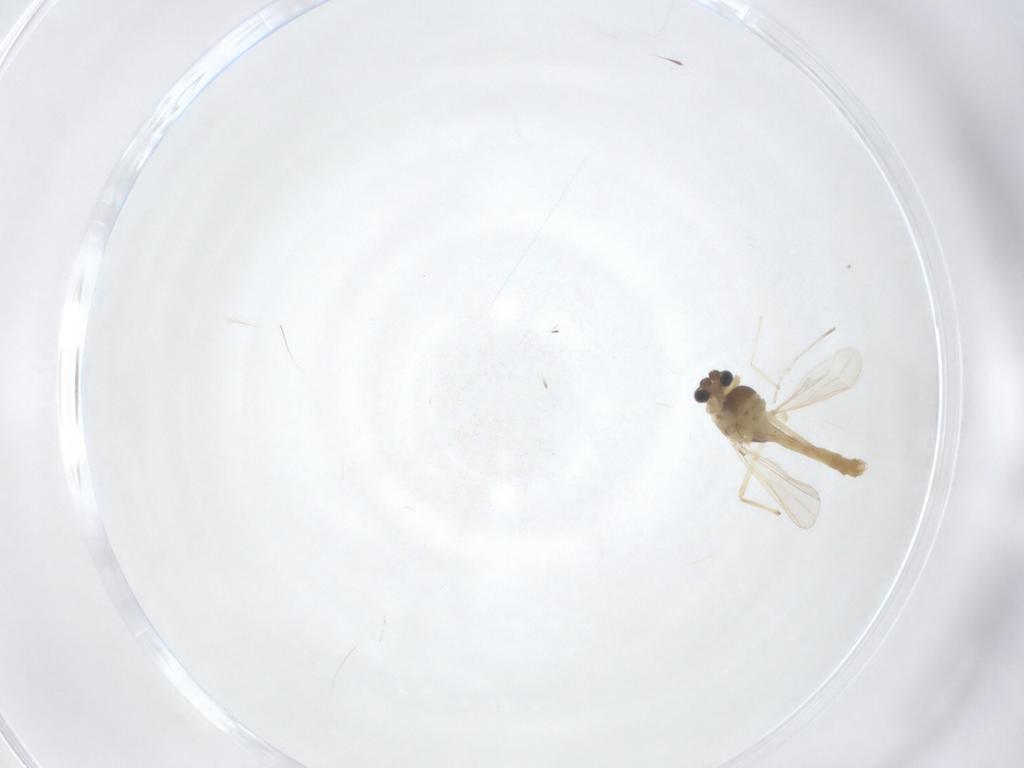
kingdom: Animalia
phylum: Arthropoda
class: Insecta
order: Diptera
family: Cecidomyiidae
